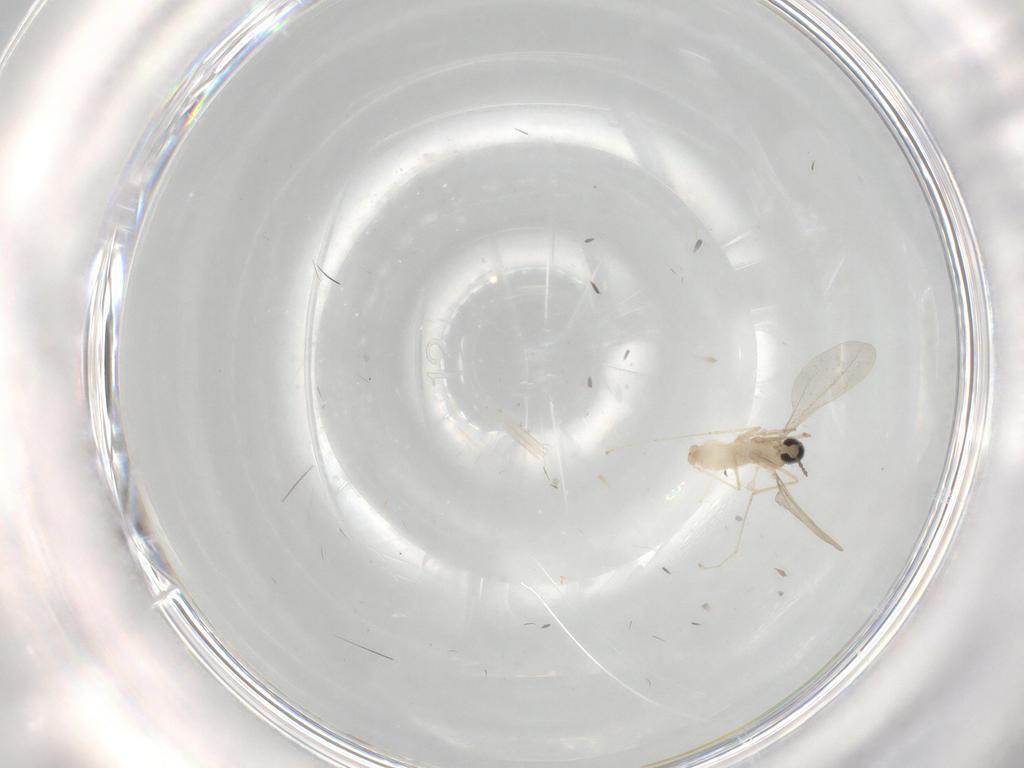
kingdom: Animalia
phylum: Arthropoda
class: Insecta
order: Diptera
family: Cecidomyiidae
